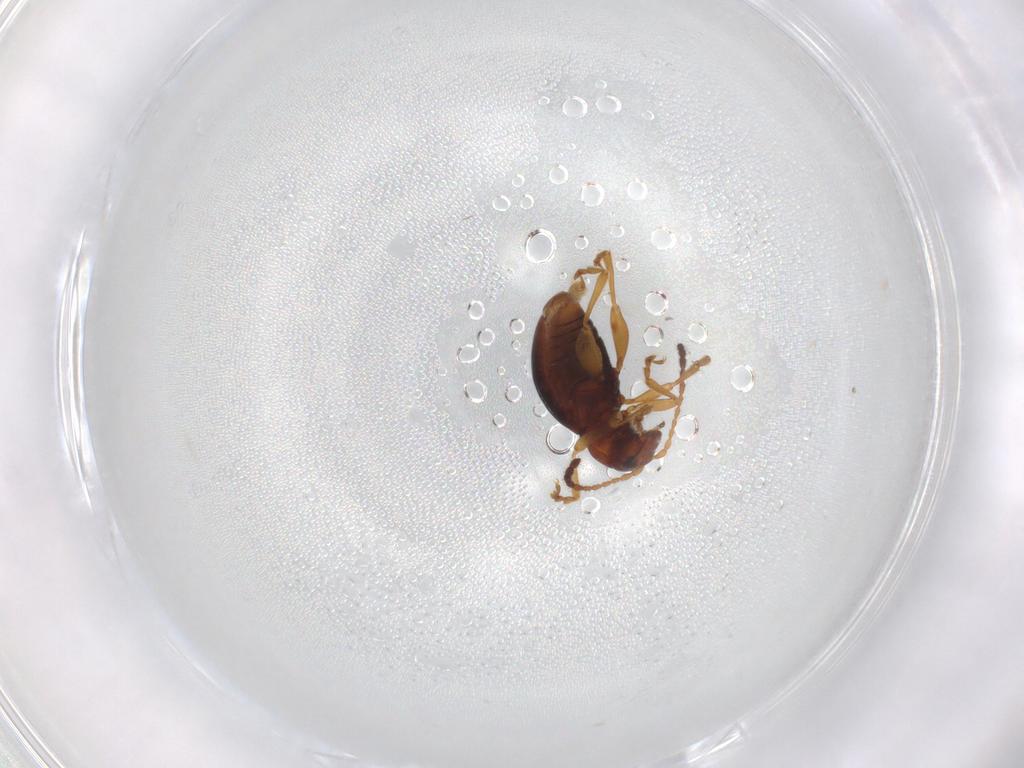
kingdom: Animalia
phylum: Arthropoda
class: Insecta
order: Coleoptera
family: Chrysomelidae
